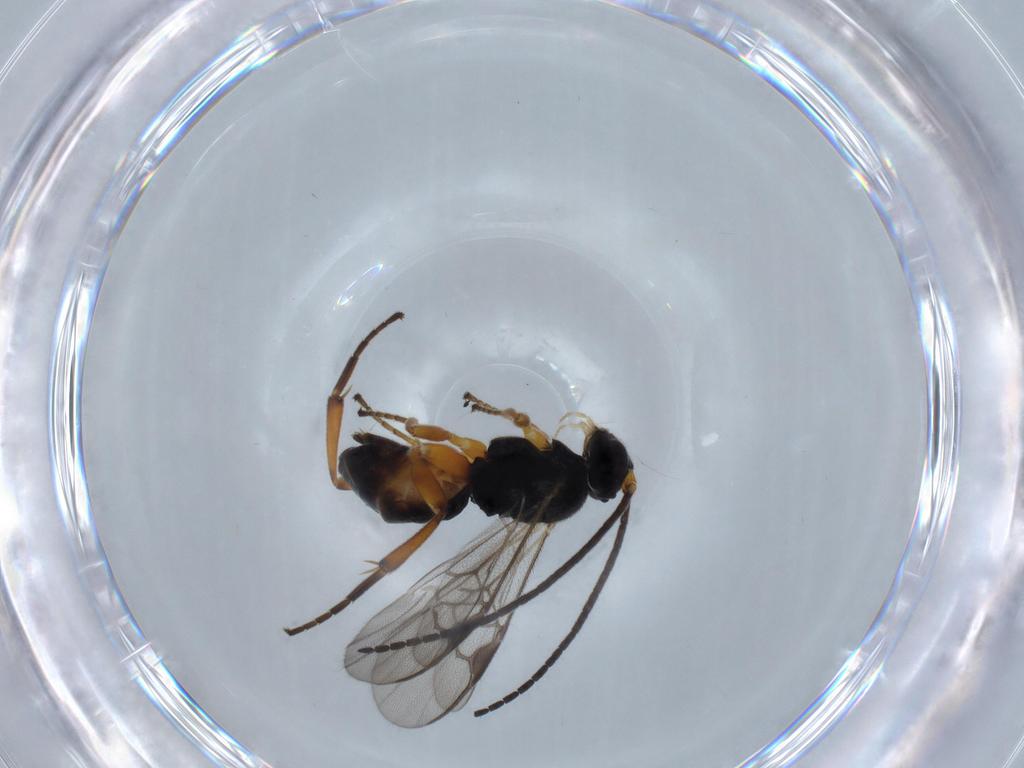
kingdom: Animalia
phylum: Arthropoda
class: Insecta
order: Hymenoptera
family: Braconidae
